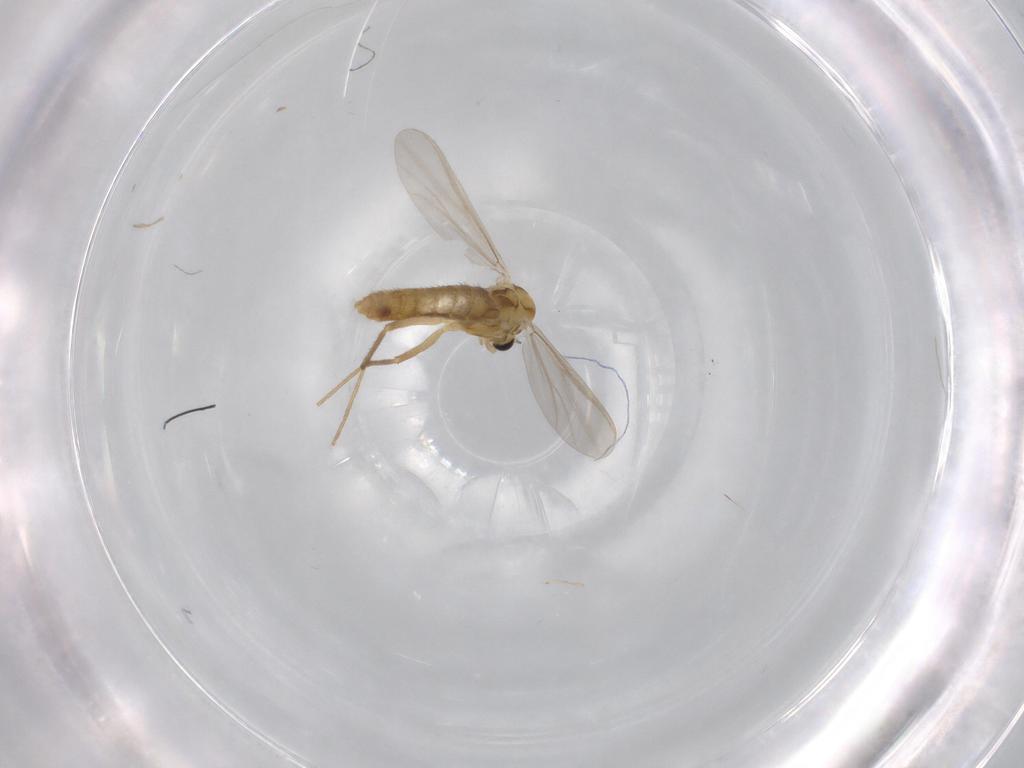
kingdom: Animalia
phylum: Arthropoda
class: Insecta
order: Diptera
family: Chironomidae
